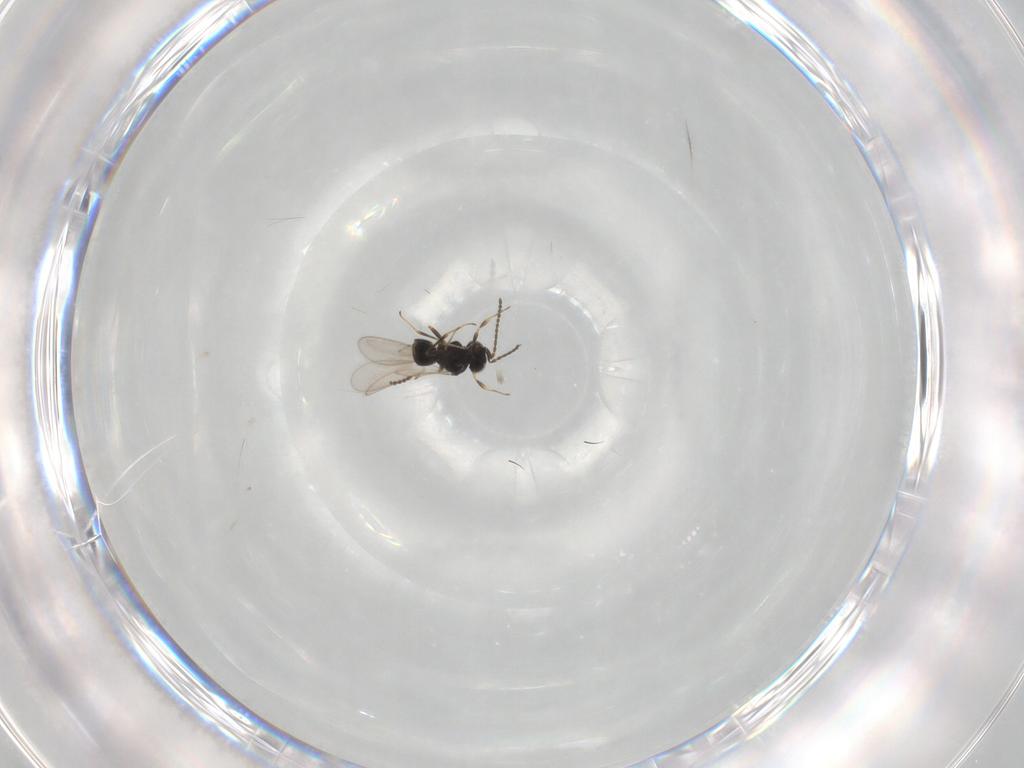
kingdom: Animalia
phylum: Arthropoda
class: Insecta
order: Hymenoptera
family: Scelionidae
